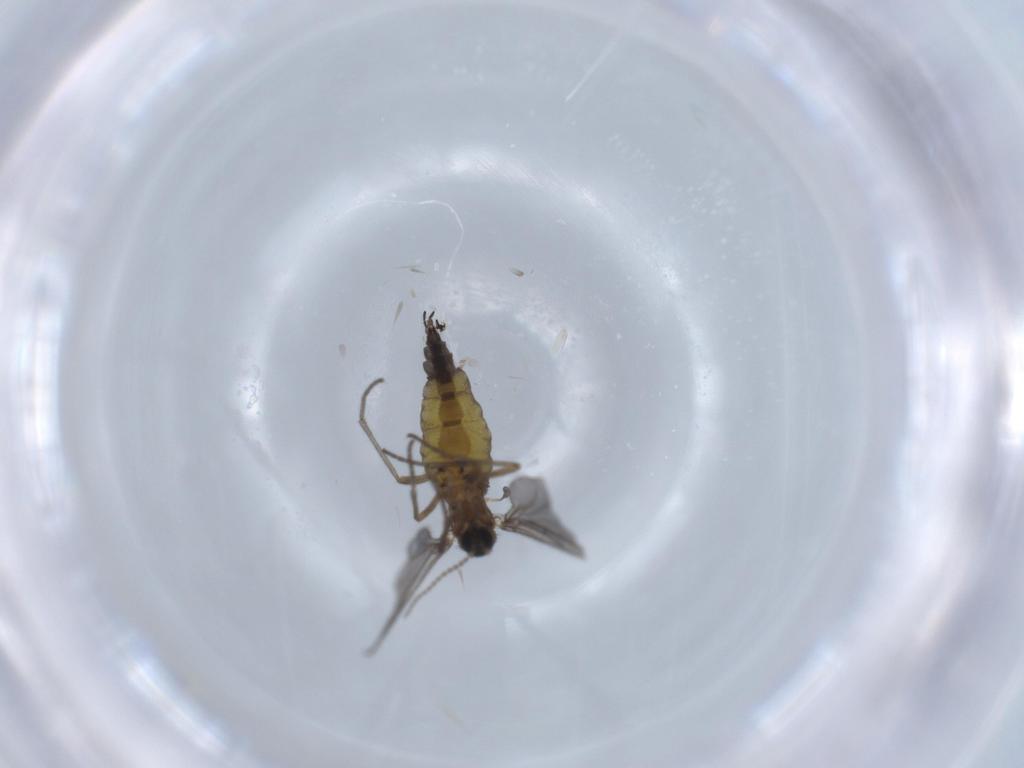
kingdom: Animalia
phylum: Arthropoda
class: Insecta
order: Diptera
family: Sciaridae
